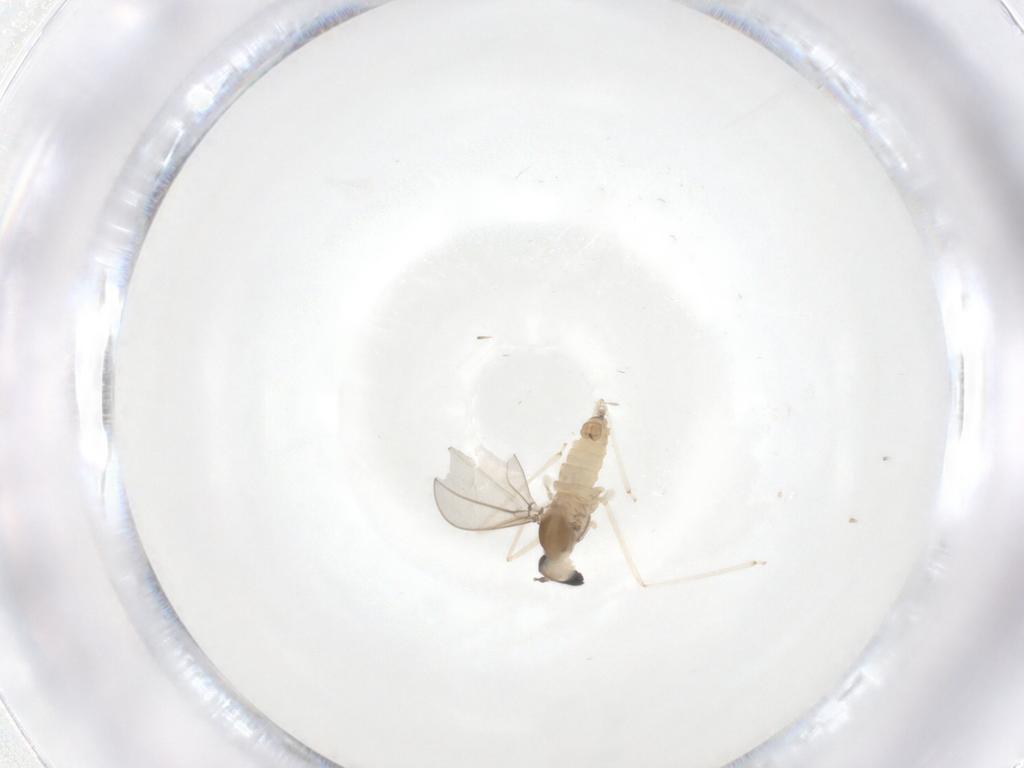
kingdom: Animalia
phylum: Arthropoda
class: Insecta
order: Diptera
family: Cecidomyiidae
